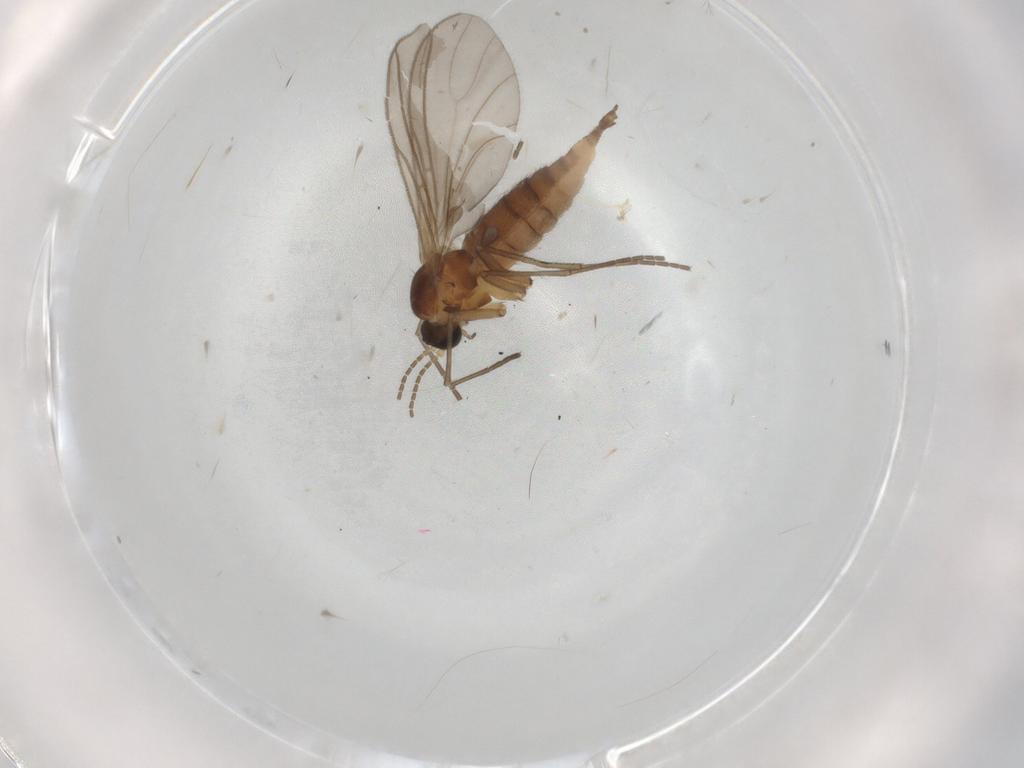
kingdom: Animalia
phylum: Arthropoda
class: Insecta
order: Diptera
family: Sciaridae
